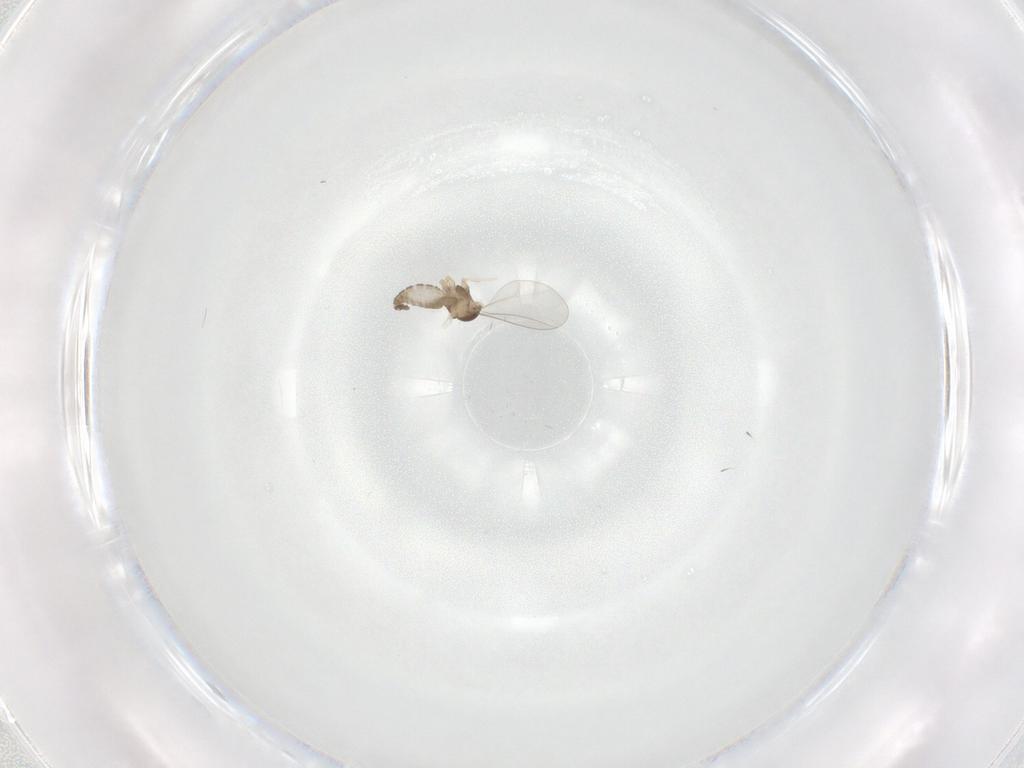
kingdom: Animalia
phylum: Arthropoda
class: Insecta
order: Diptera
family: Cecidomyiidae
